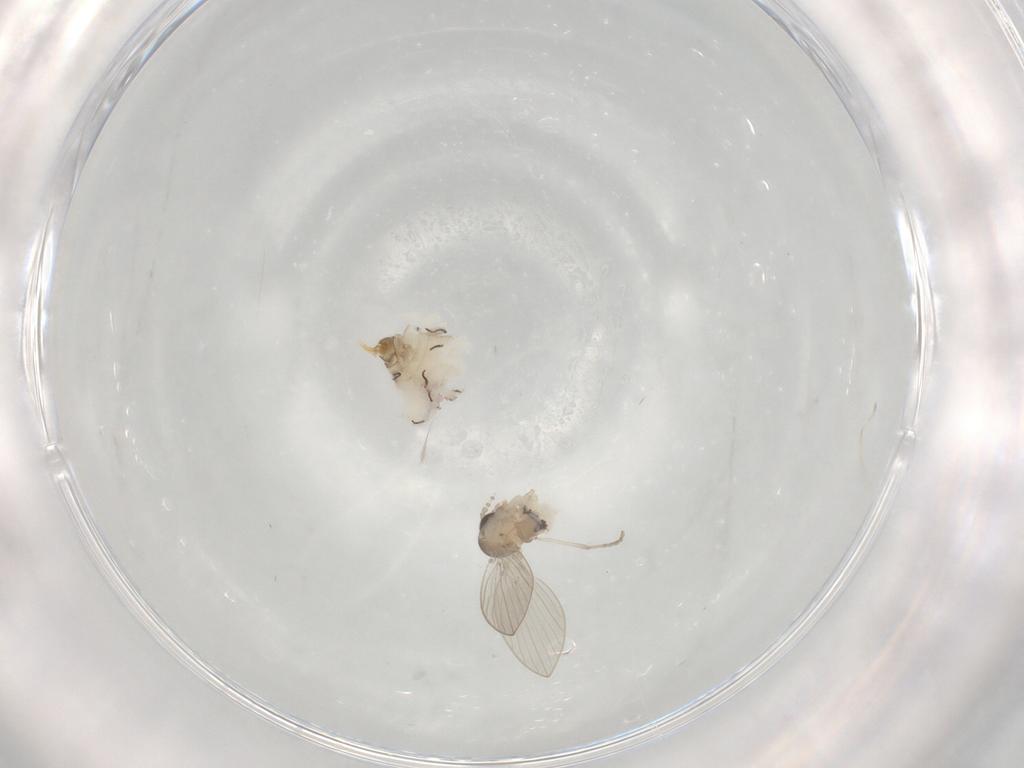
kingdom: Animalia
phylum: Arthropoda
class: Insecta
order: Diptera
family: Psychodidae
